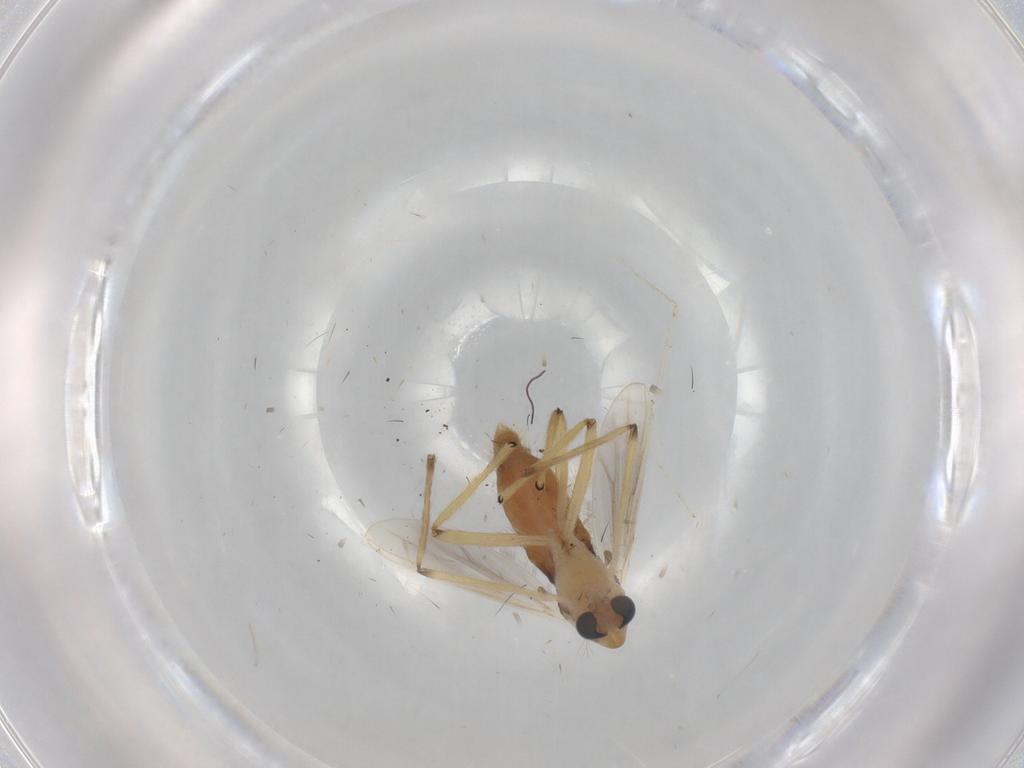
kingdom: Animalia
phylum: Arthropoda
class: Insecta
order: Diptera
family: Chironomidae
